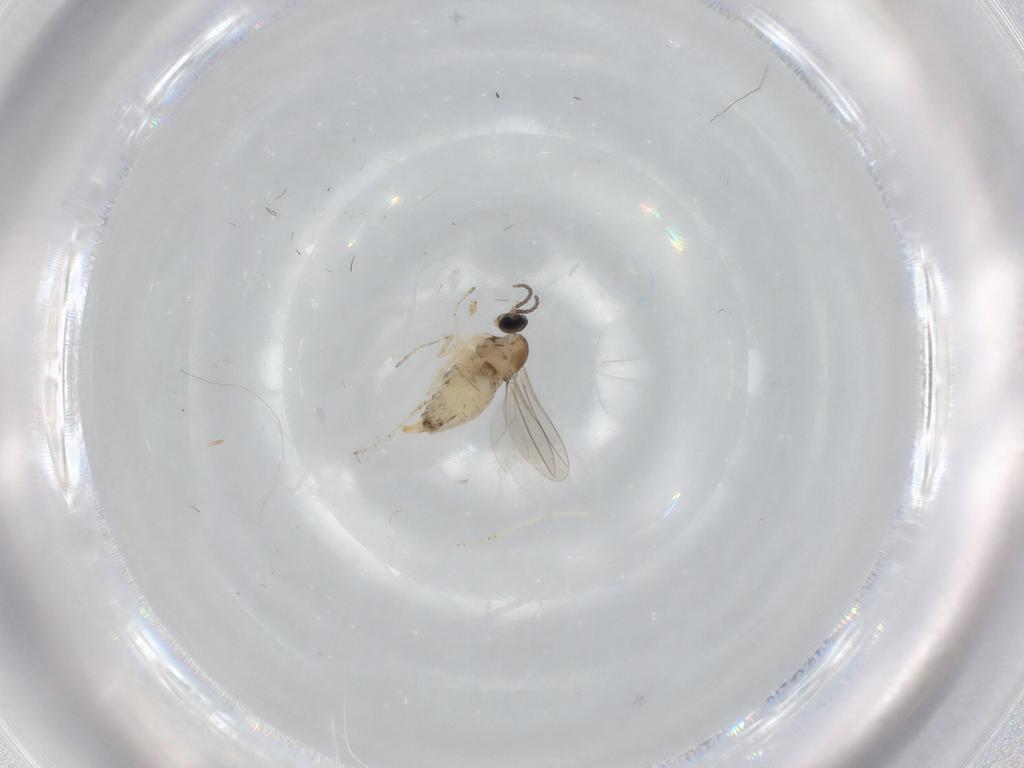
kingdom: Animalia
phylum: Arthropoda
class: Insecta
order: Diptera
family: Cecidomyiidae
